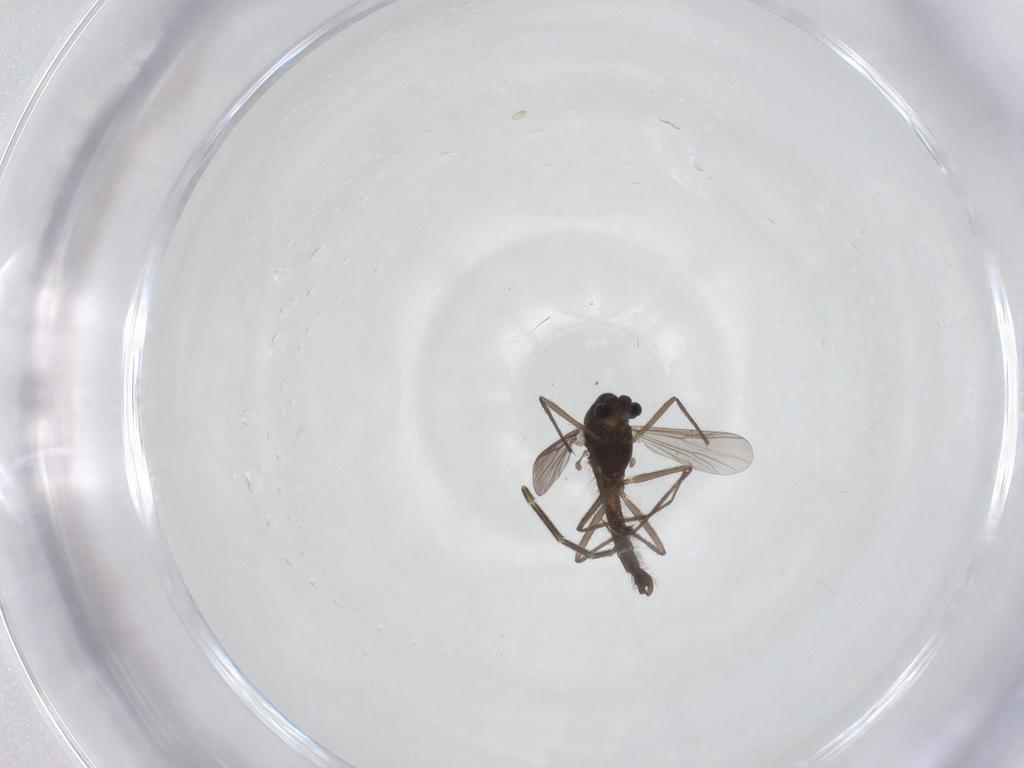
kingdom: Animalia
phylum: Arthropoda
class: Insecta
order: Diptera
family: Chironomidae
